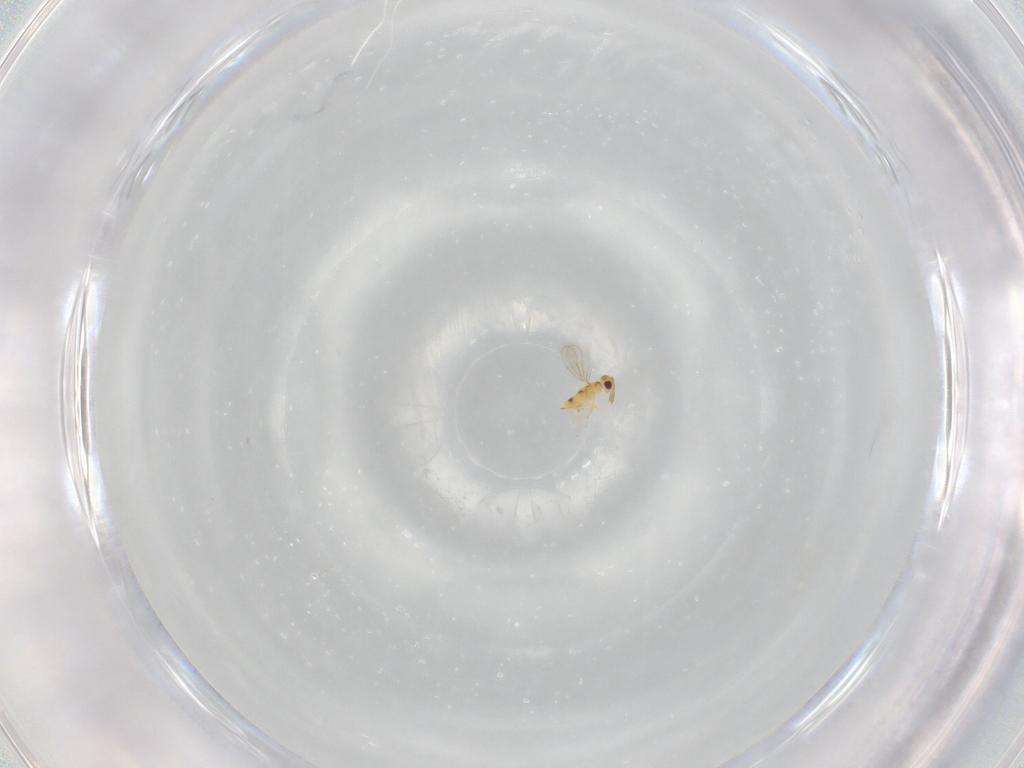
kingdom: Animalia
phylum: Arthropoda
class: Insecta
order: Hymenoptera
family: Aphelinidae
